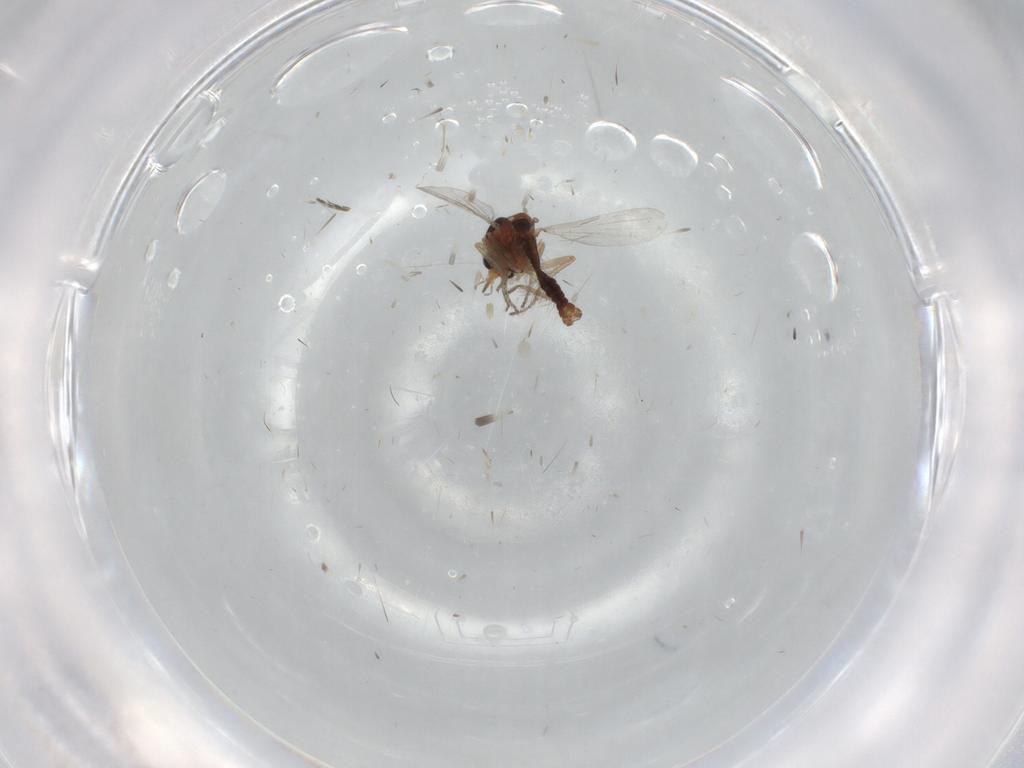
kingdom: Animalia
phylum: Arthropoda
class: Insecta
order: Diptera
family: Ceratopogonidae
